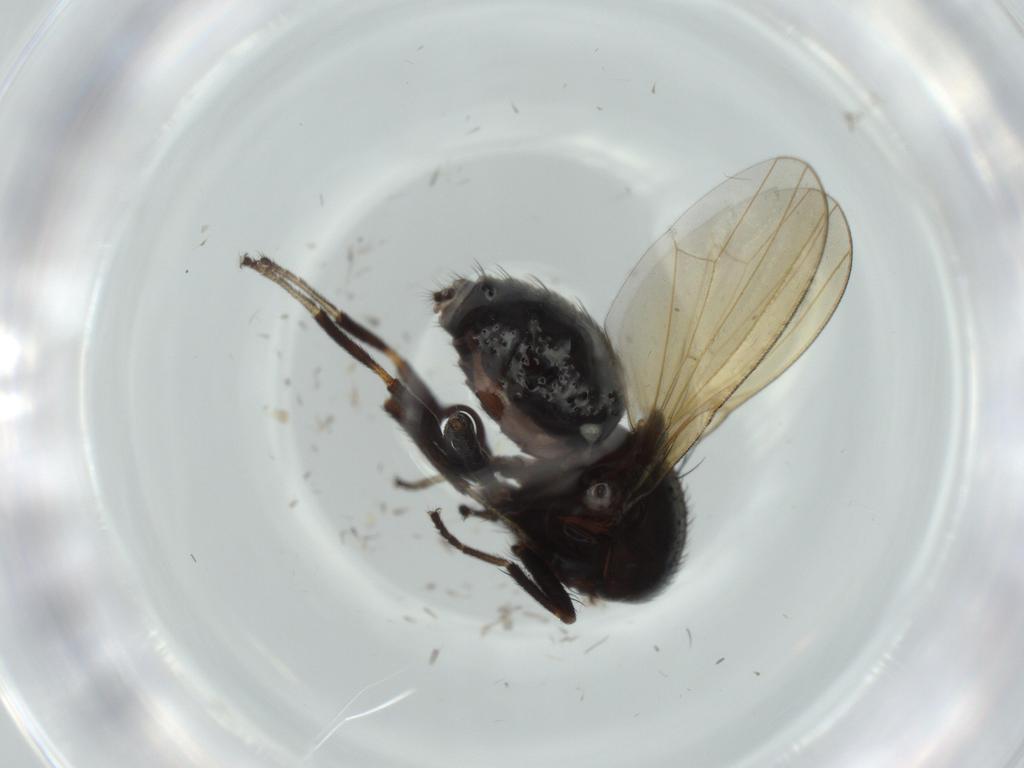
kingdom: Animalia
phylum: Arthropoda
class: Insecta
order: Diptera
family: Lauxaniidae
